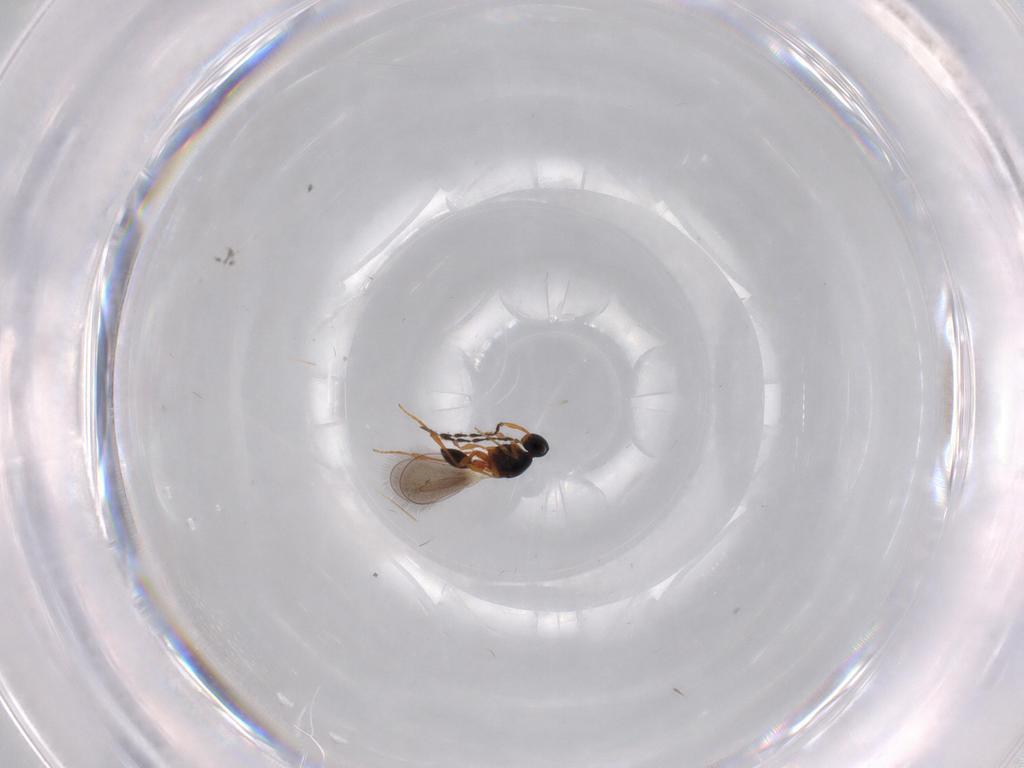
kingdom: Animalia
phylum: Arthropoda
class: Insecta
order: Hymenoptera
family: Platygastridae
